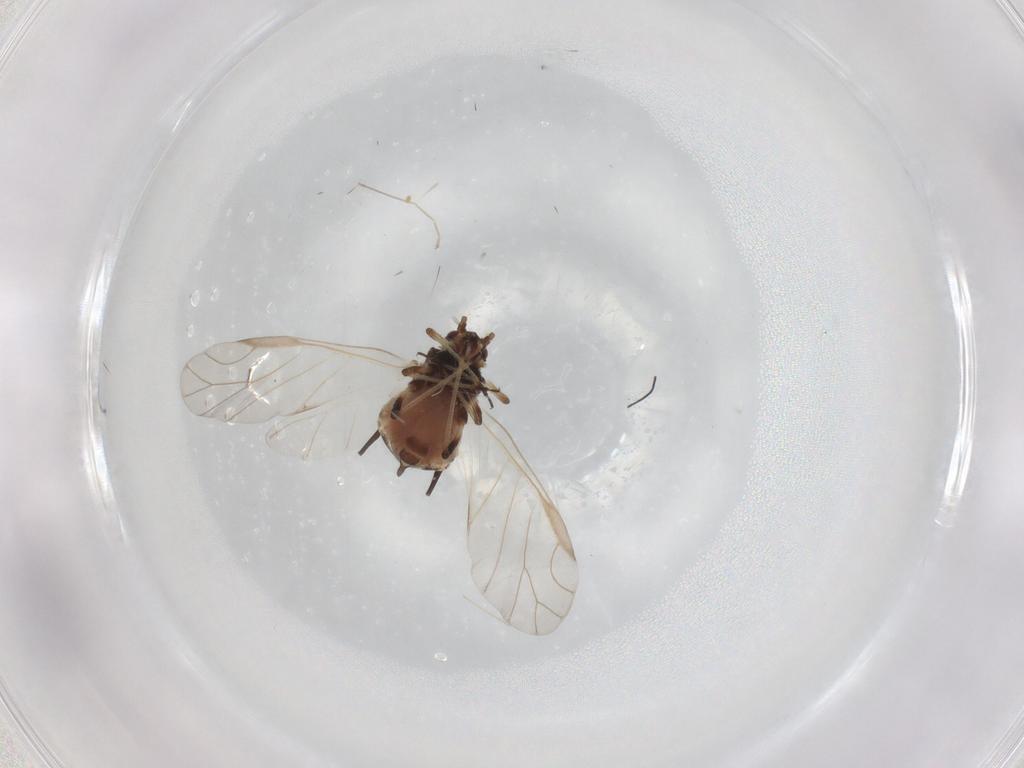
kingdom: Animalia
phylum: Arthropoda
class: Insecta
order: Hemiptera
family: Aphididae
